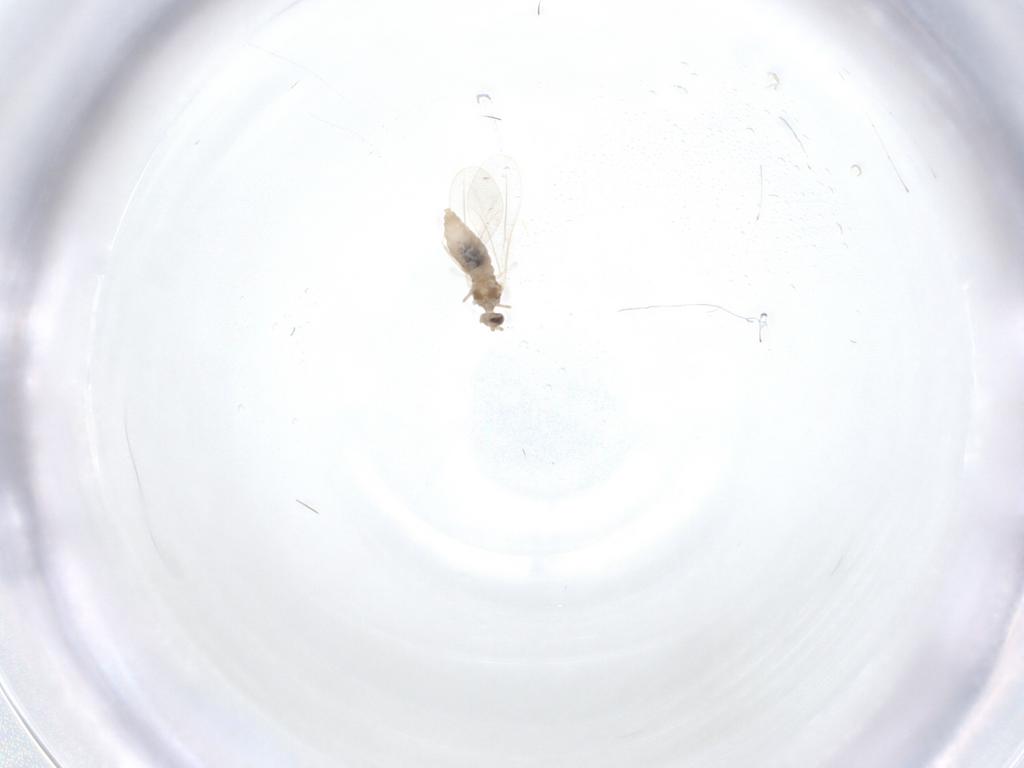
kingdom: Animalia
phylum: Arthropoda
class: Insecta
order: Diptera
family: Cecidomyiidae
